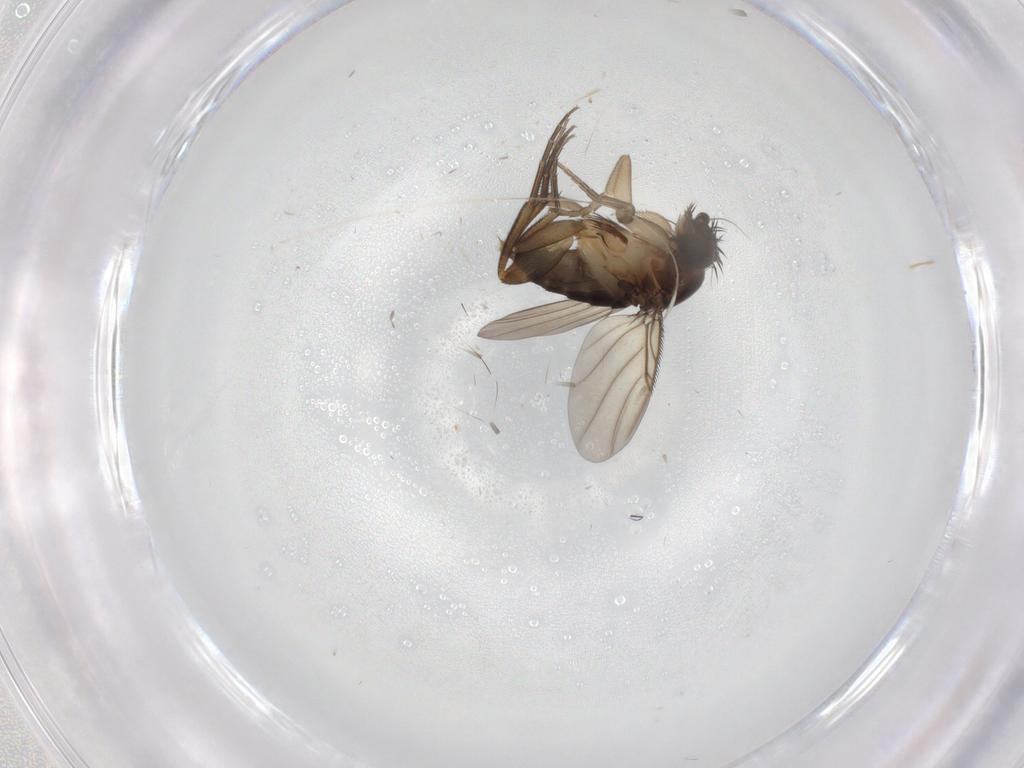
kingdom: Animalia
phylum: Arthropoda
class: Insecta
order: Diptera
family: Phoridae
